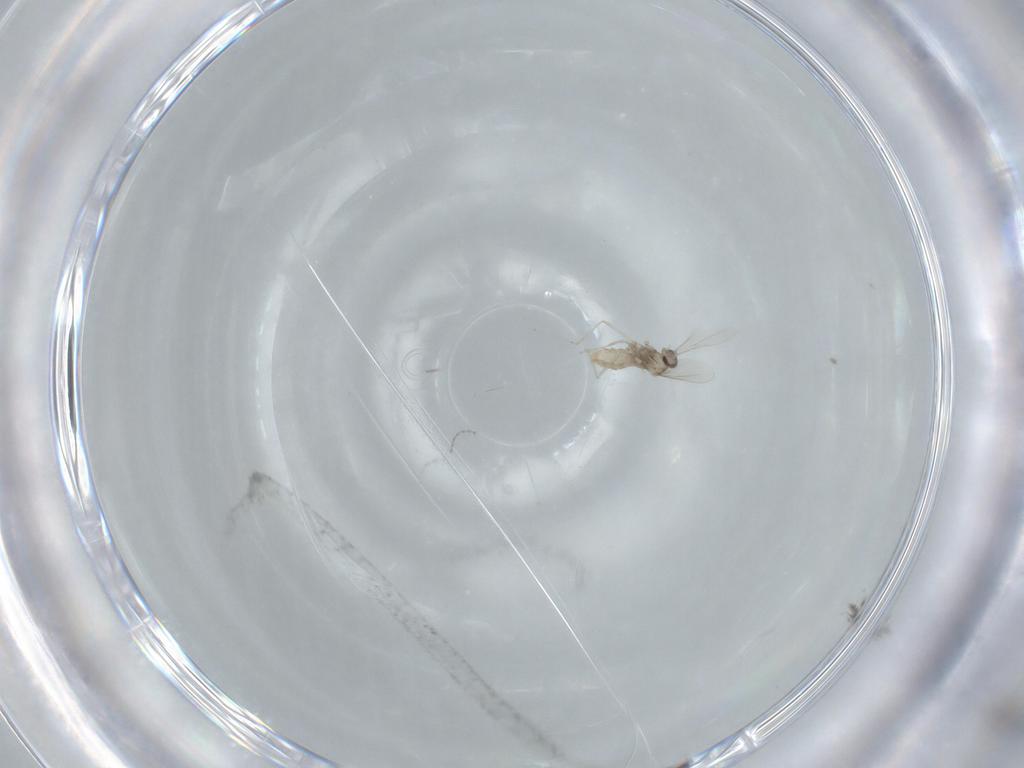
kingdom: Animalia
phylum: Arthropoda
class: Insecta
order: Diptera
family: Cecidomyiidae
